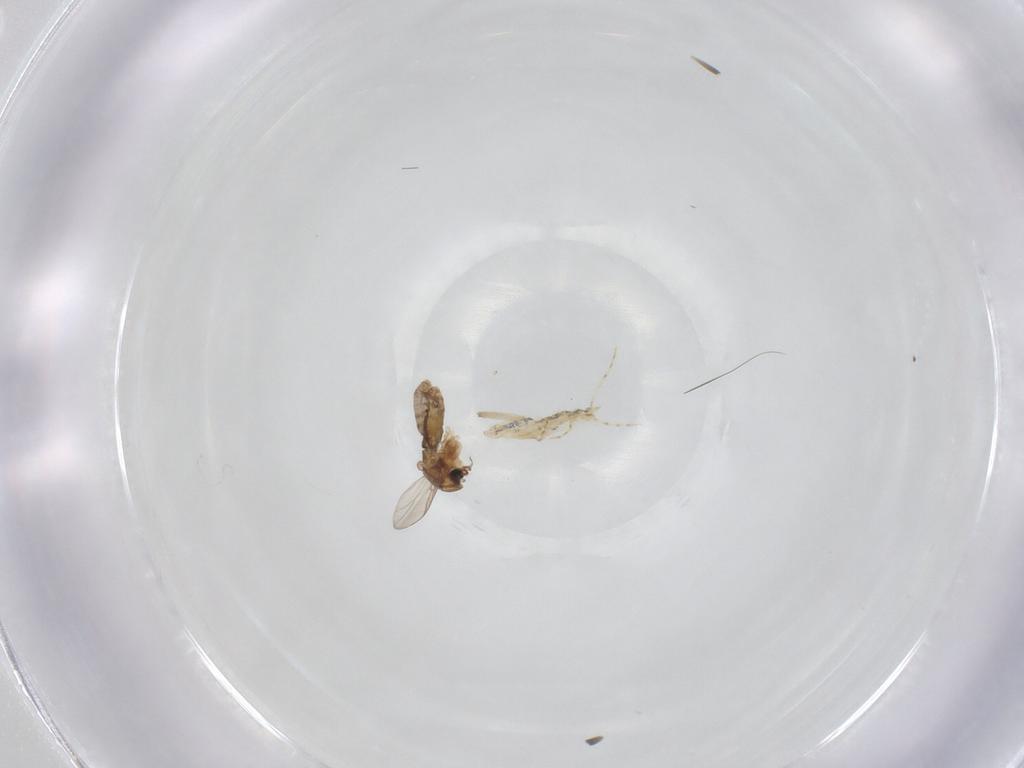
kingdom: Animalia
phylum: Arthropoda
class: Insecta
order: Diptera
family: Chironomidae
